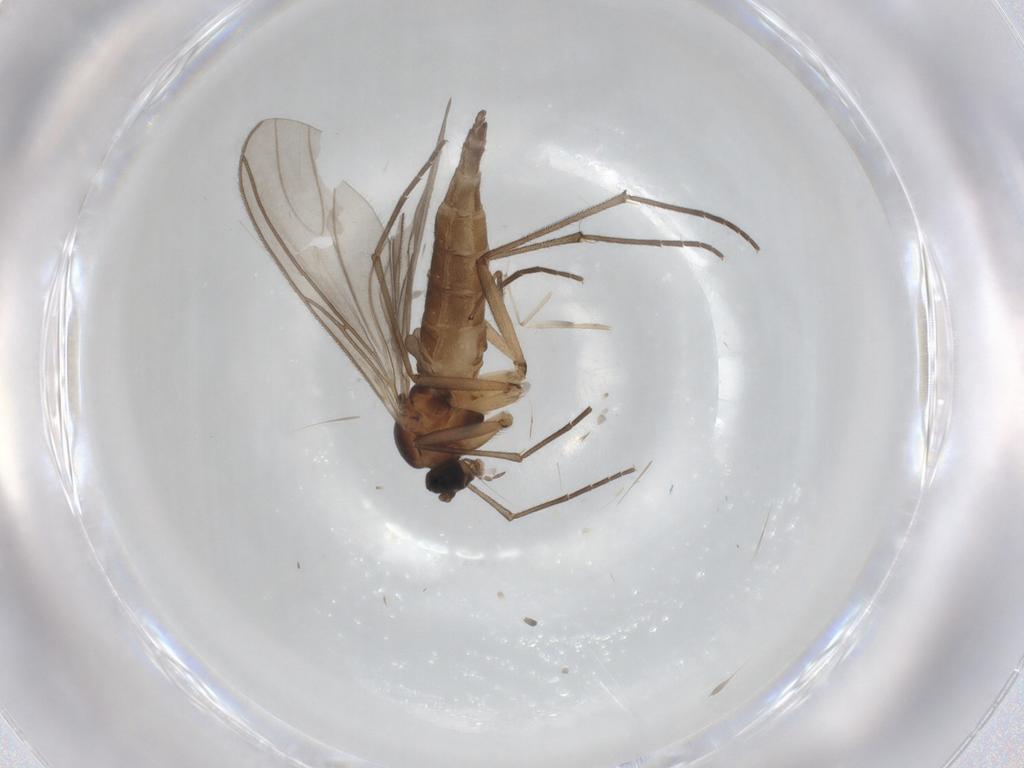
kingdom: Animalia
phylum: Arthropoda
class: Insecta
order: Diptera
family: Sciaridae
